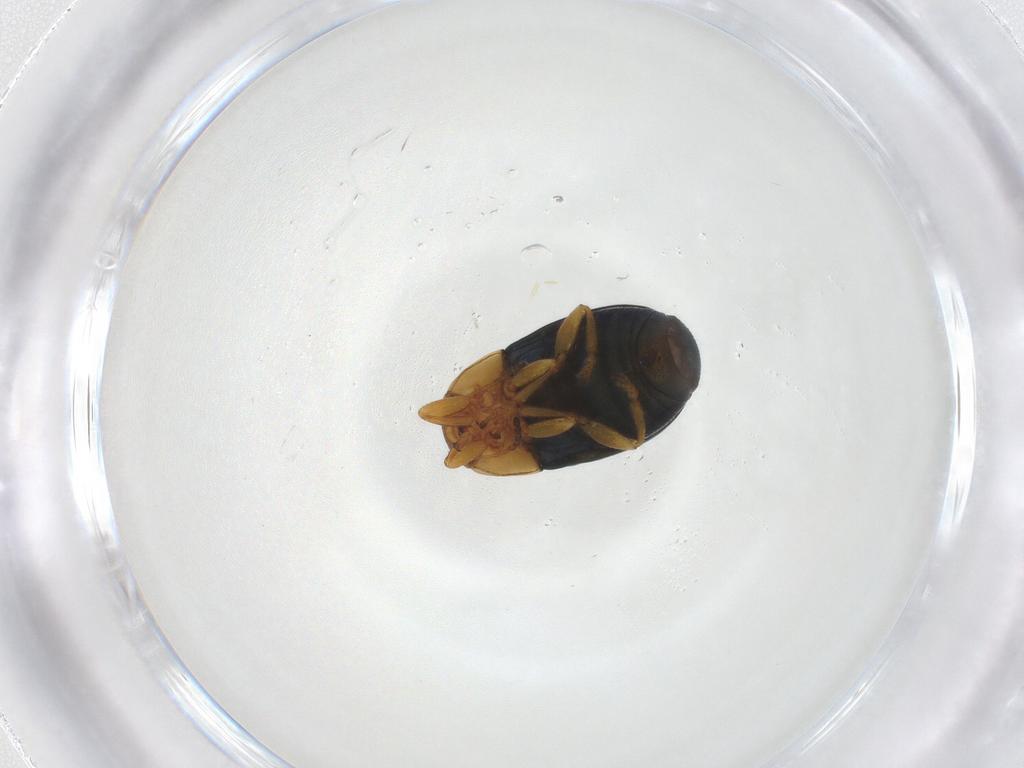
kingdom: Animalia
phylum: Arthropoda
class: Insecta
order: Coleoptera
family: Chrysomelidae
